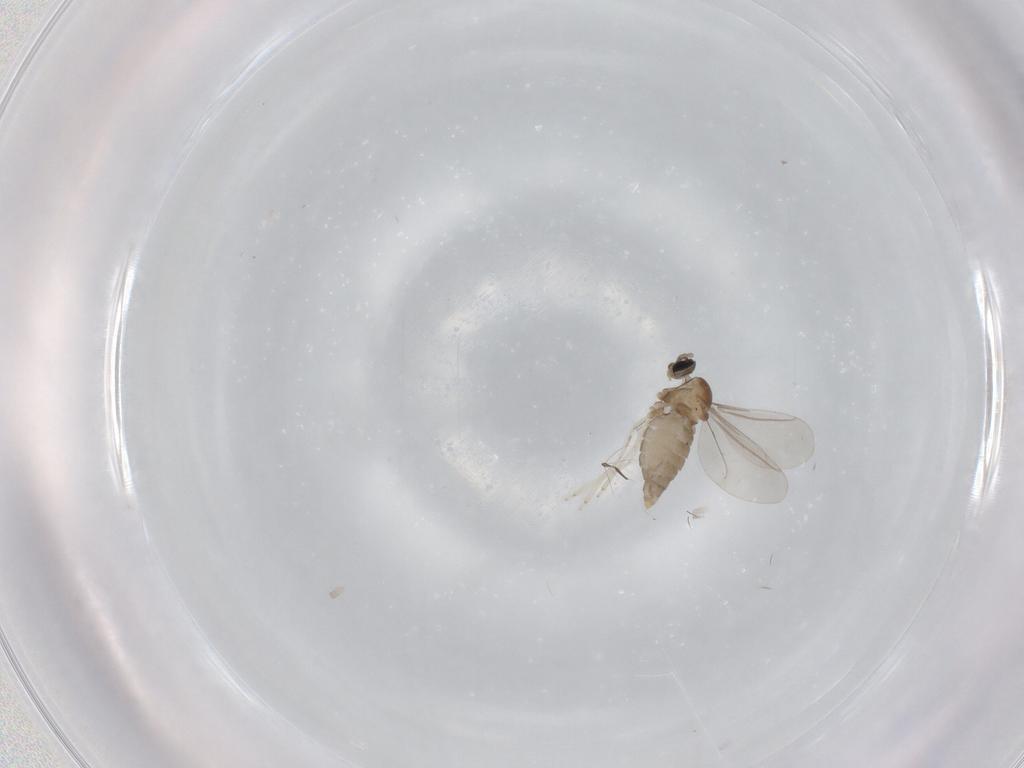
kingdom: Animalia
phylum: Arthropoda
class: Insecta
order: Diptera
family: Cecidomyiidae
